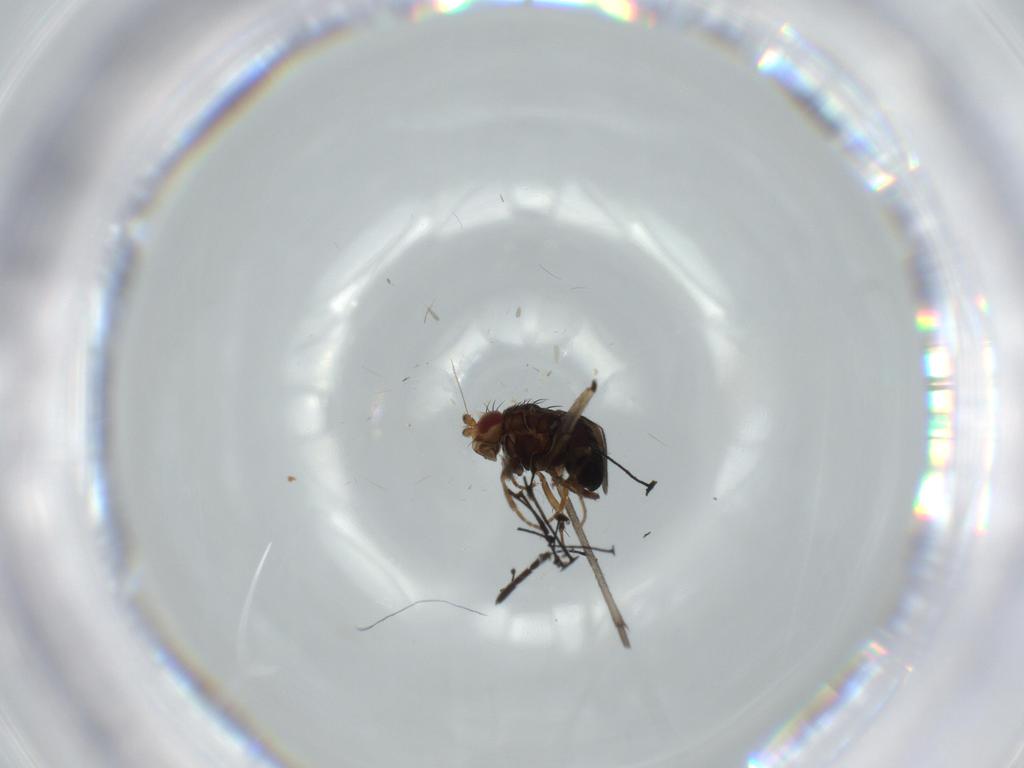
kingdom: Animalia
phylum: Arthropoda
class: Insecta
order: Diptera
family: Sciaridae
